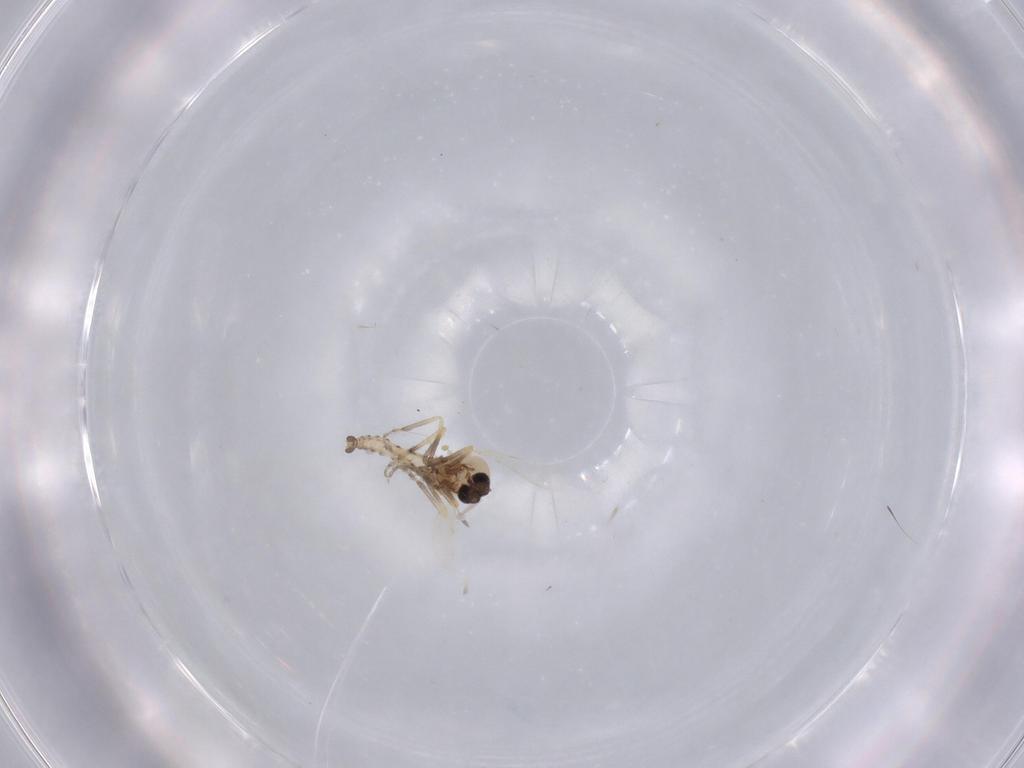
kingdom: Animalia
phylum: Arthropoda
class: Insecta
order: Diptera
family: Ceratopogonidae
